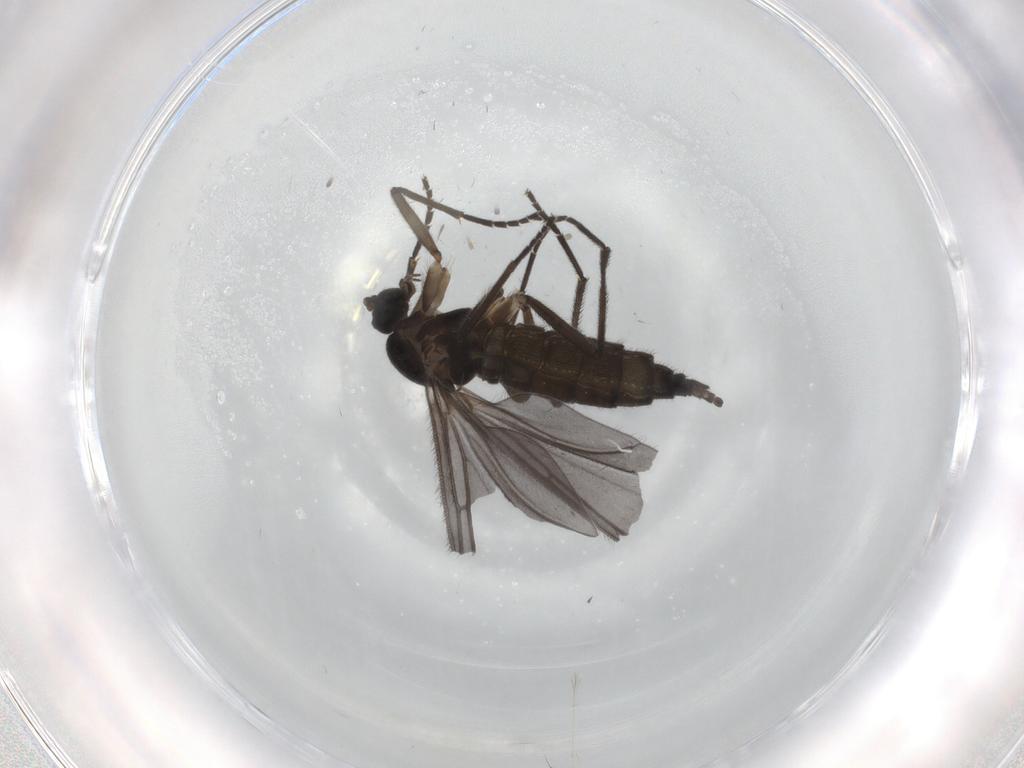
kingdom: Animalia
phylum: Arthropoda
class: Insecta
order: Diptera
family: Sciaridae
